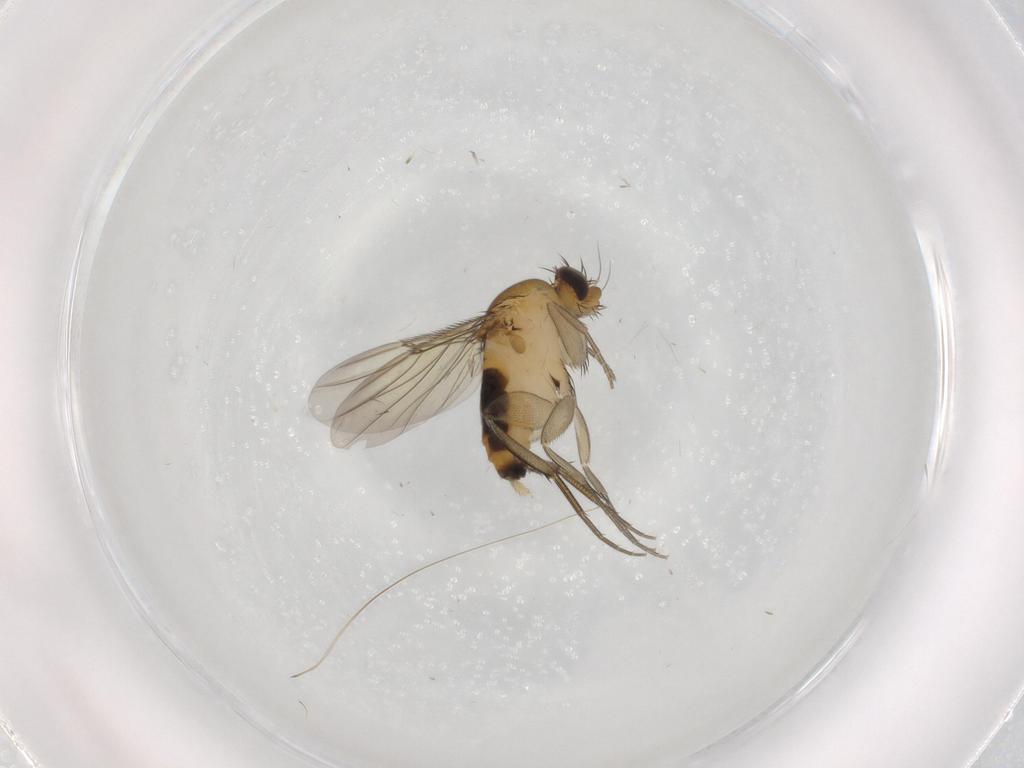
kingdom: Animalia
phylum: Arthropoda
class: Insecta
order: Diptera
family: Phoridae
